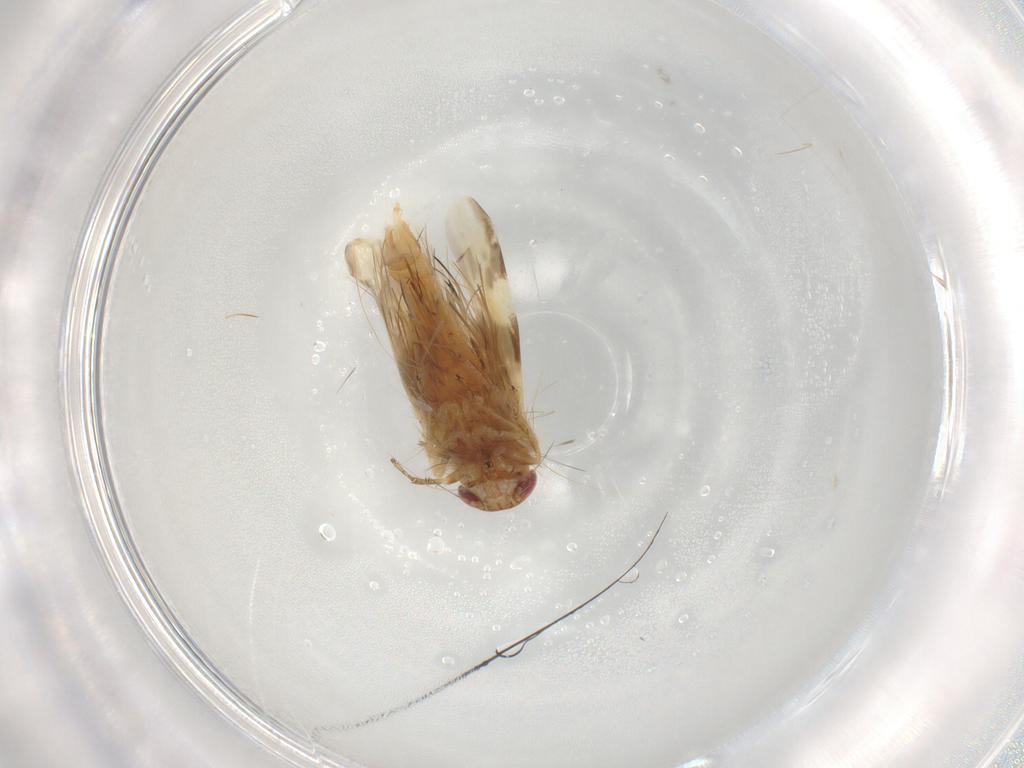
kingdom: Animalia
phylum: Arthropoda
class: Insecta
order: Hemiptera
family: Cicadellidae
